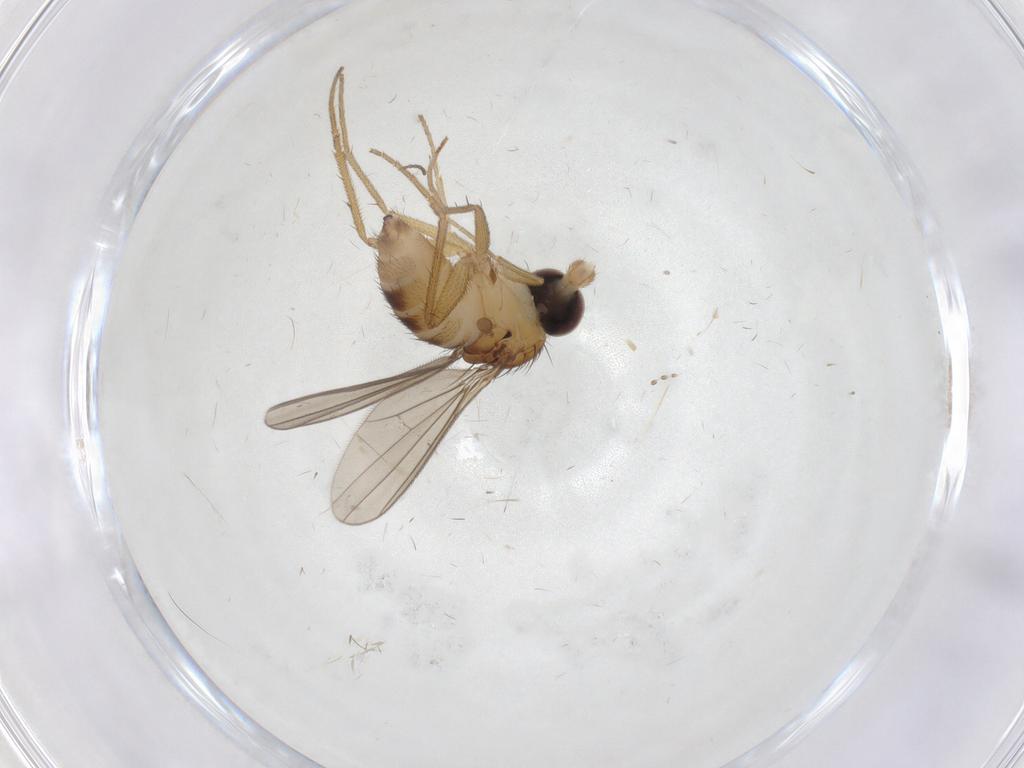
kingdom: Animalia
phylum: Arthropoda
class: Insecta
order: Diptera
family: Dolichopodidae
